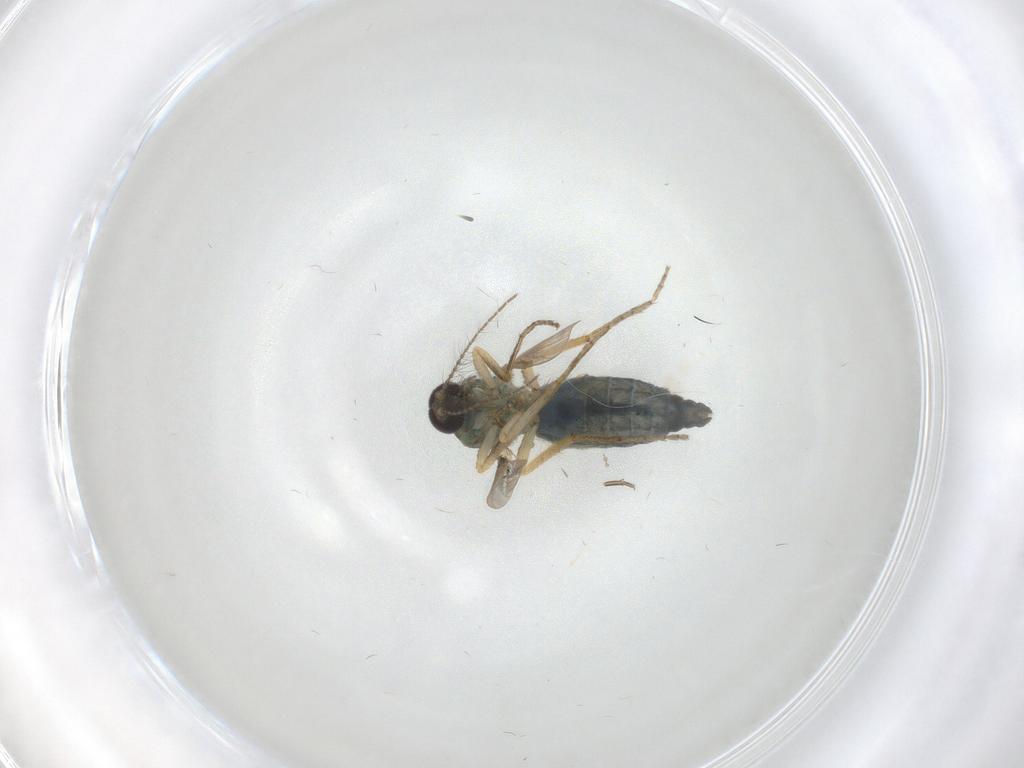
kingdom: Animalia
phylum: Arthropoda
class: Insecta
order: Diptera
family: Ceratopogonidae
